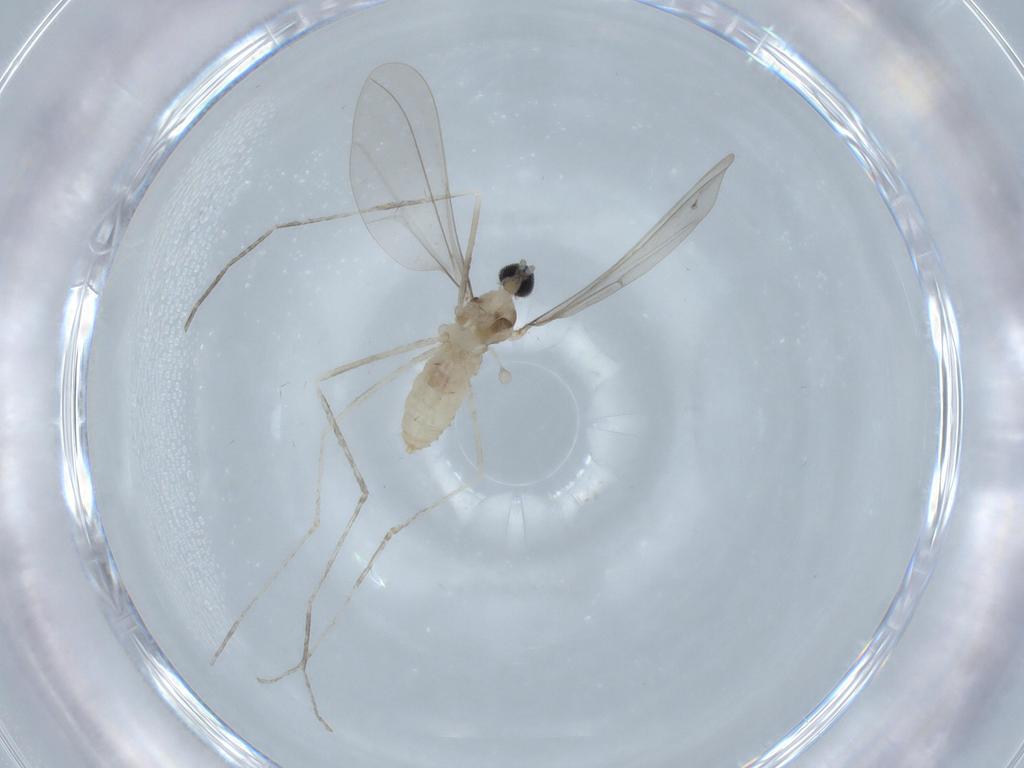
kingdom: Animalia
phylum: Arthropoda
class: Insecta
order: Diptera
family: Cecidomyiidae
